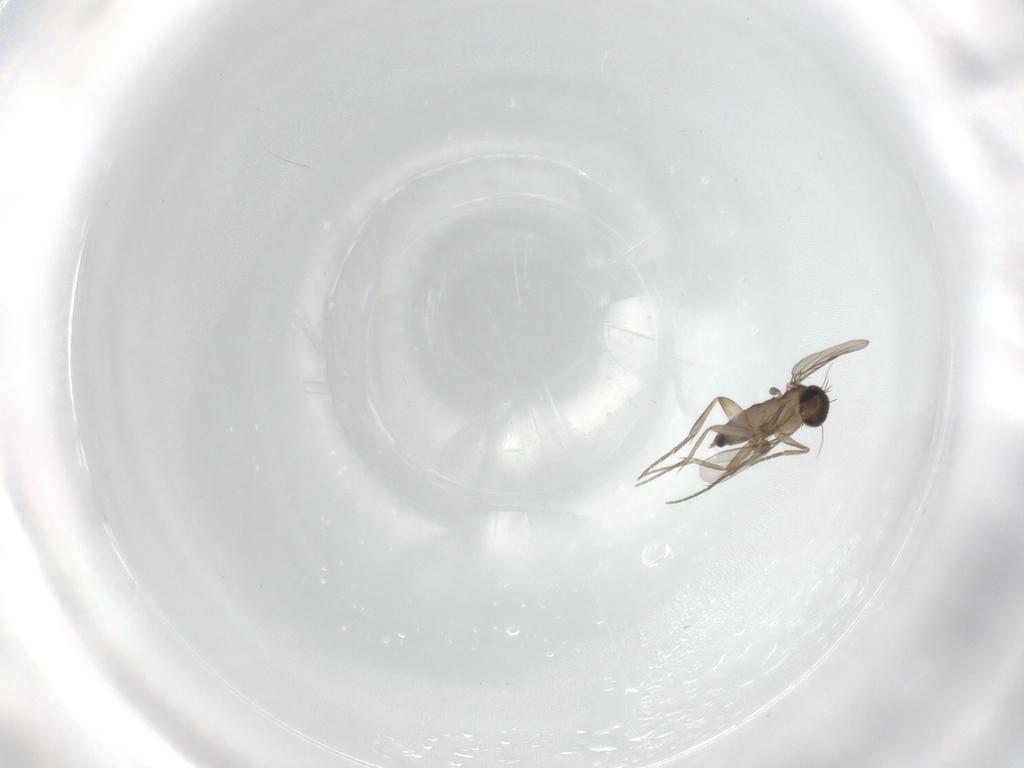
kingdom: Animalia
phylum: Arthropoda
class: Insecta
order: Diptera
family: Phoridae
